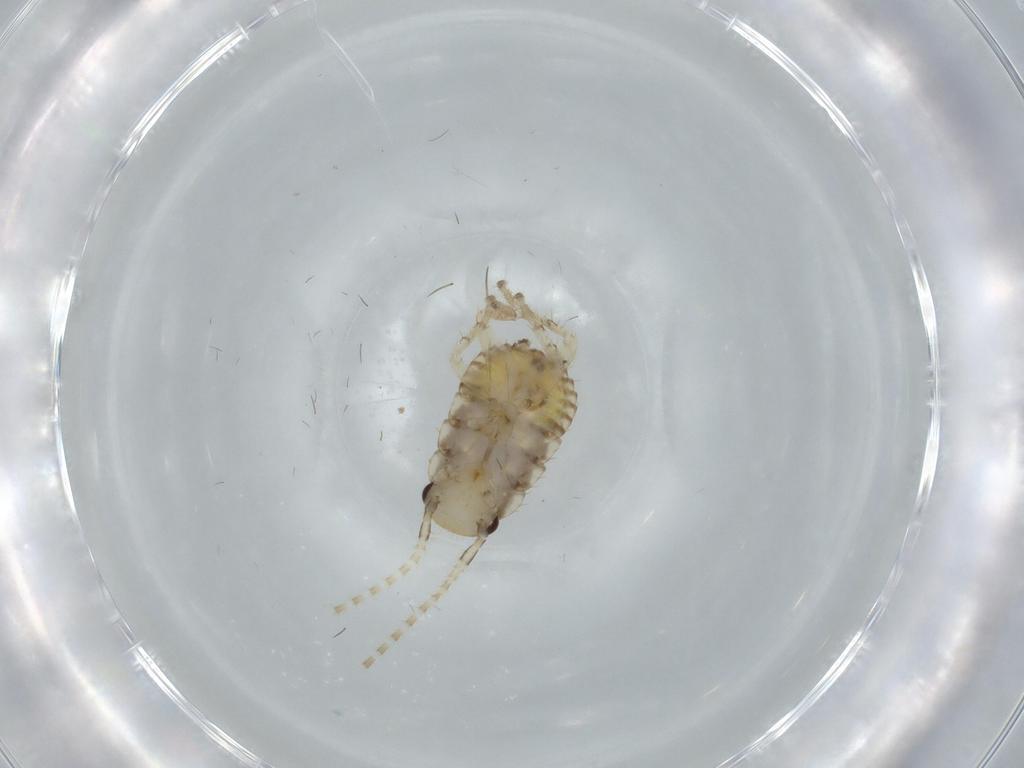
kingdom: Animalia
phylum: Arthropoda
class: Insecta
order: Blattodea
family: Ectobiidae
